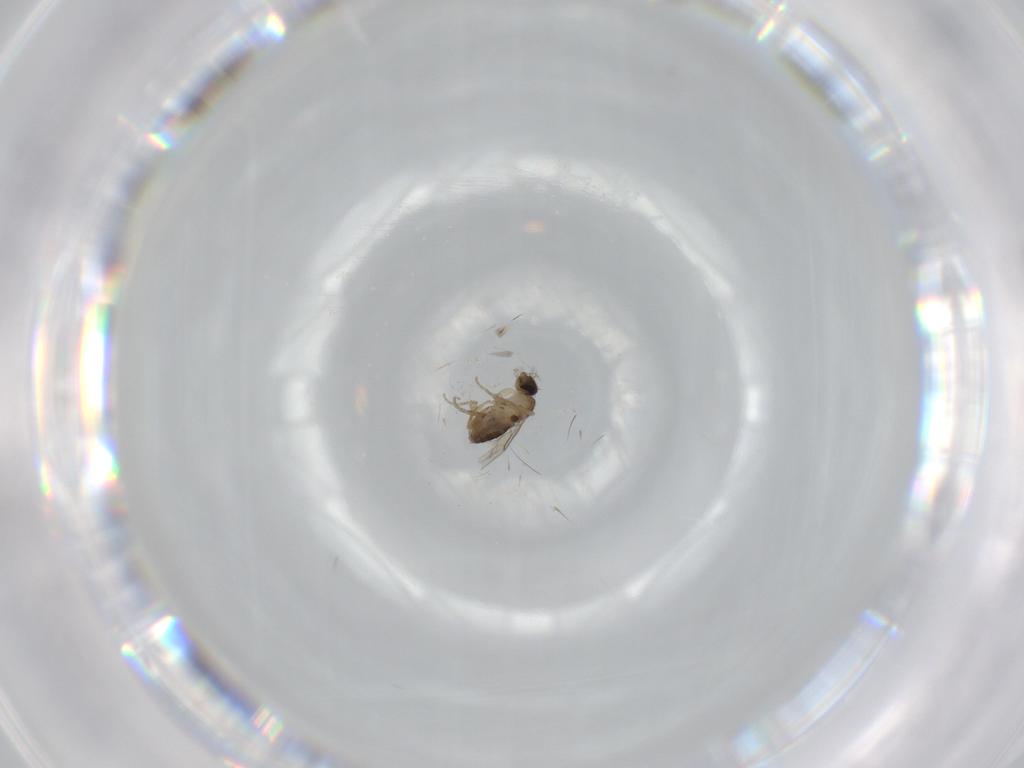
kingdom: Animalia
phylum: Arthropoda
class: Insecta
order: Diptera
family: Phoridae
